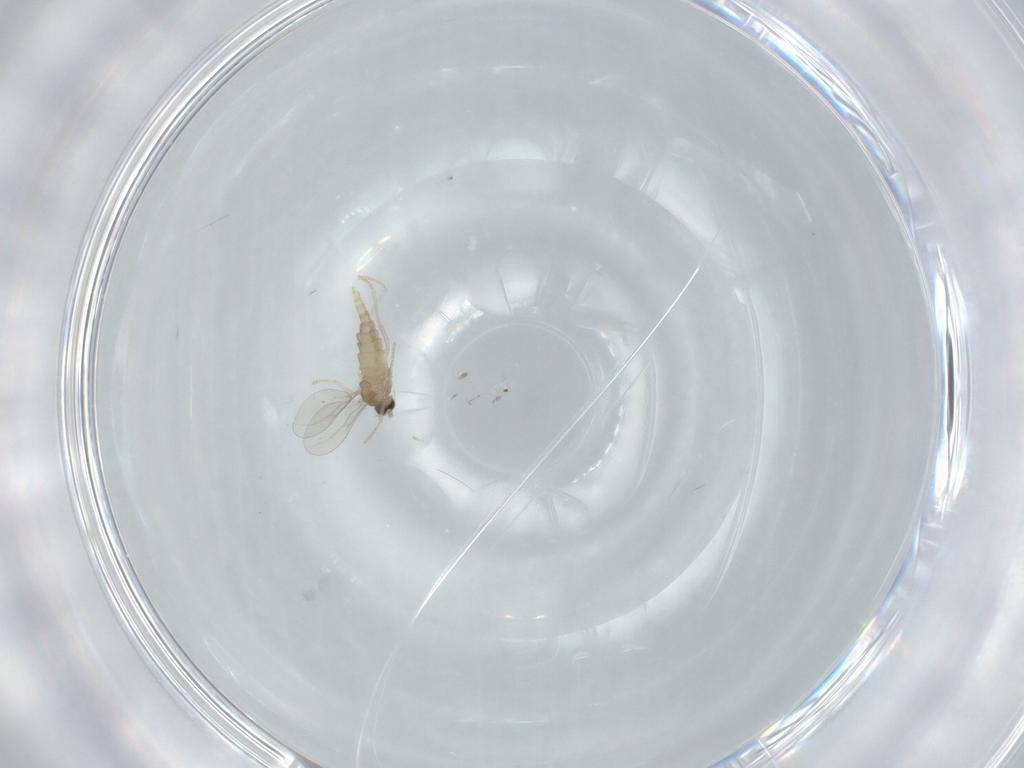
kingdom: Animalia
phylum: Arthropoda
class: Insecta
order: Diptera
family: Cecidomyiidae
